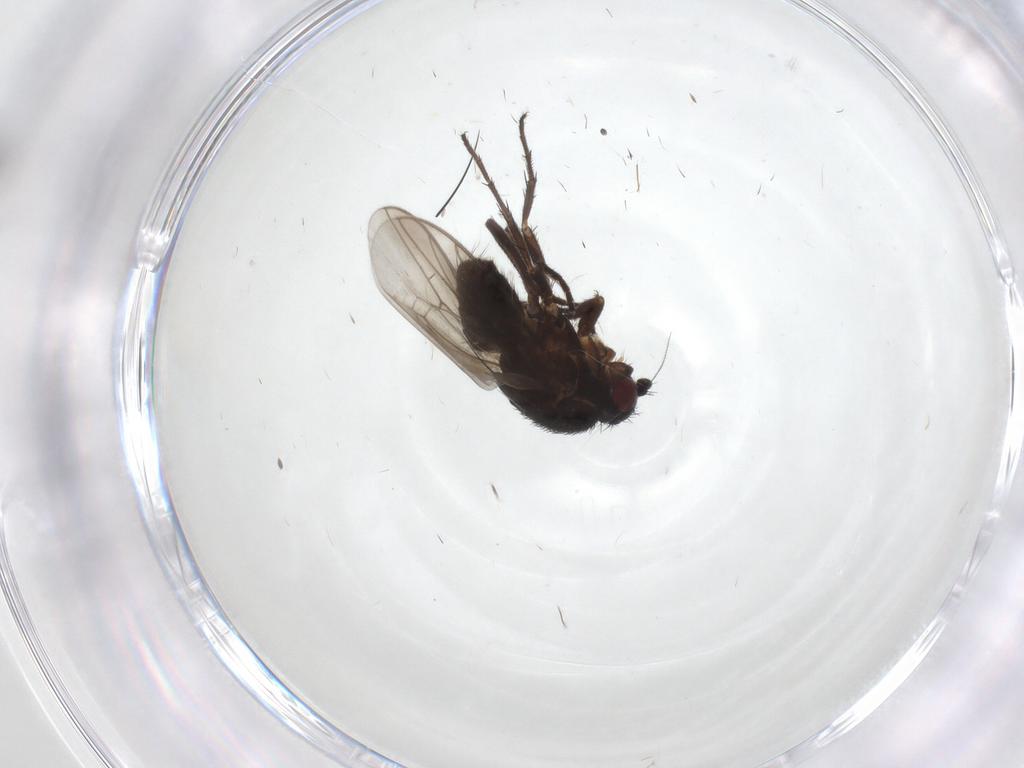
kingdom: Animalia
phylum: Arthropoda
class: Insecta
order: Diptera
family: Sphaeroceridae
